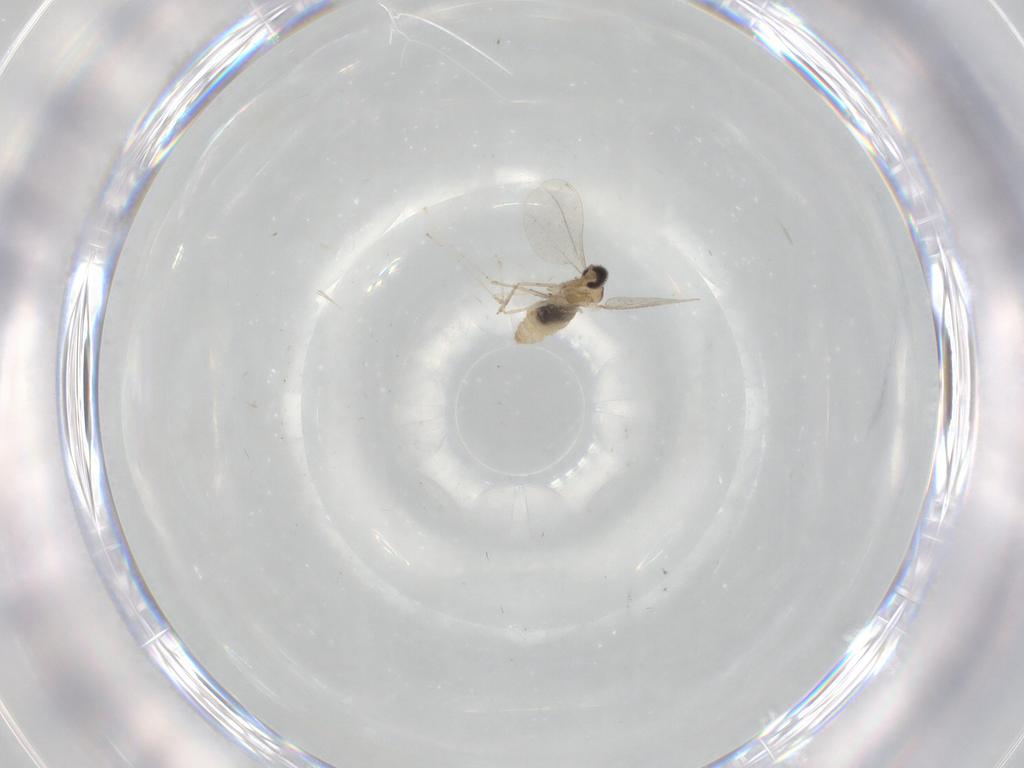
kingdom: Animalia
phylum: Arthropoda
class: Insecta
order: Diptera
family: Cecidomyiidae
